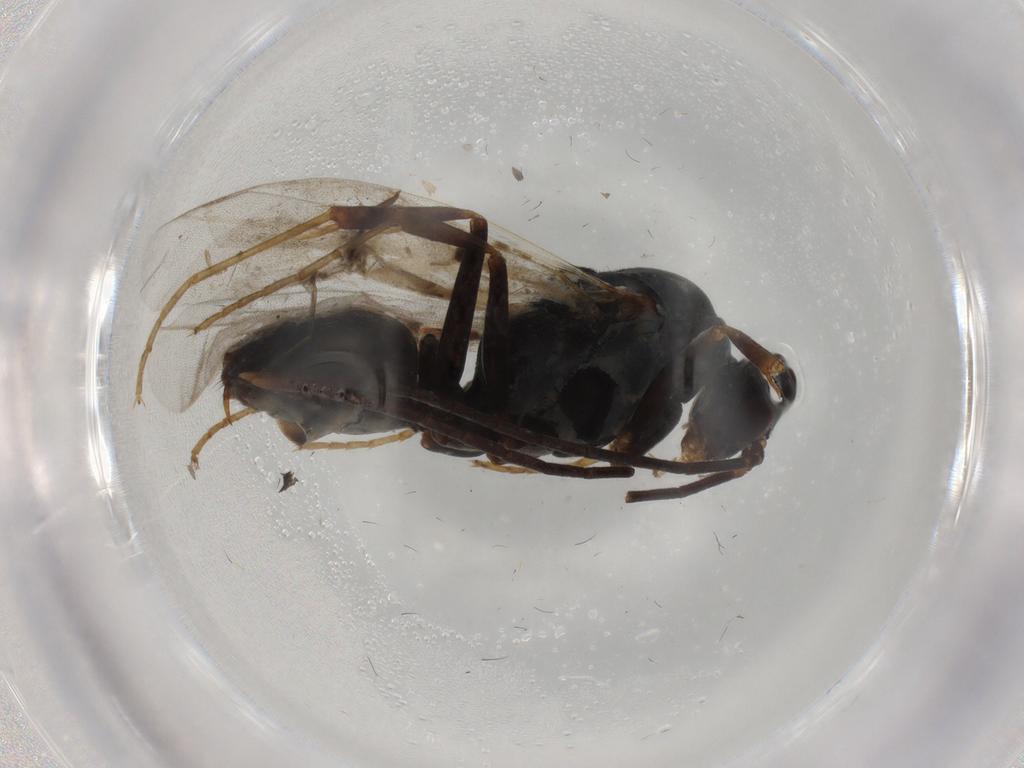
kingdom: Animalia
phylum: Arthropoda
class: Insecta
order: Hymenoptera
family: Formicidae
